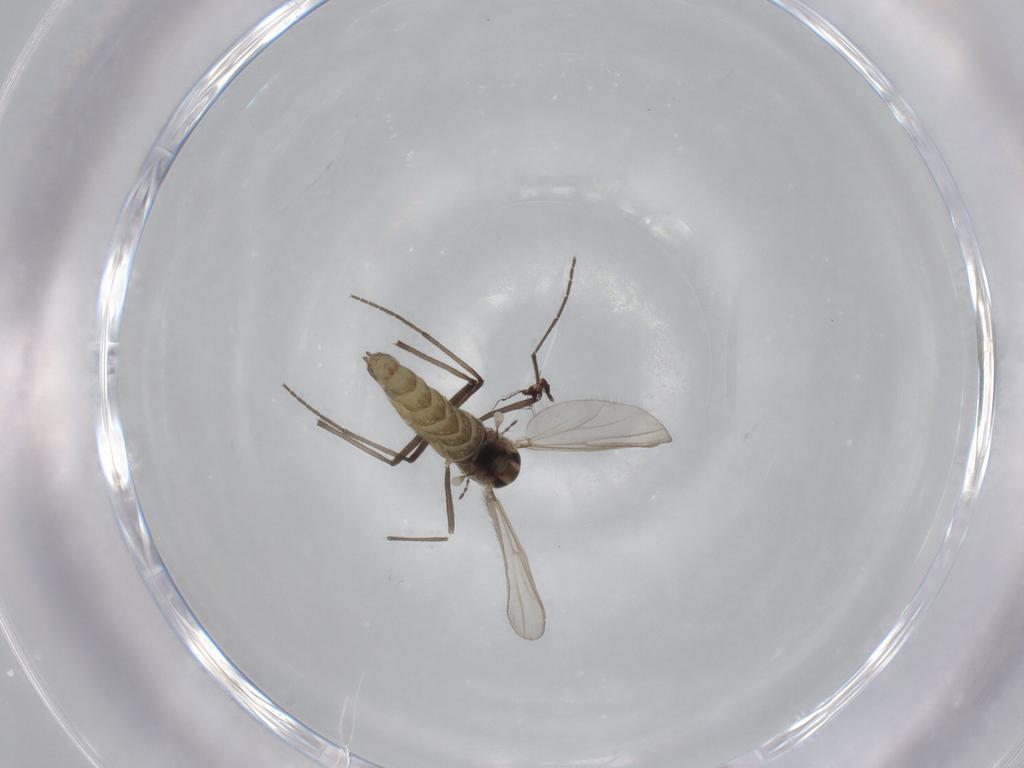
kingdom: Animalia
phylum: Arthropoda
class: Insecta
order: Diptera
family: Chironomidae
